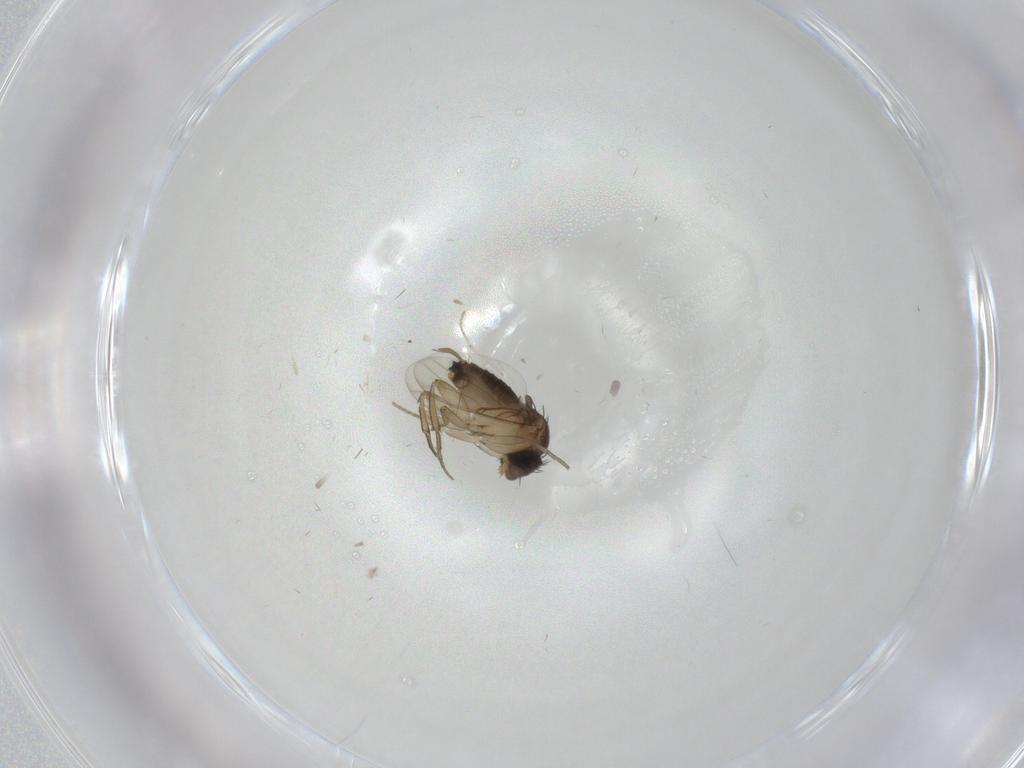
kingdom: Animalia
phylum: Arthropoda
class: Insecta
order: Diptera
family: Cecidomyiidae
